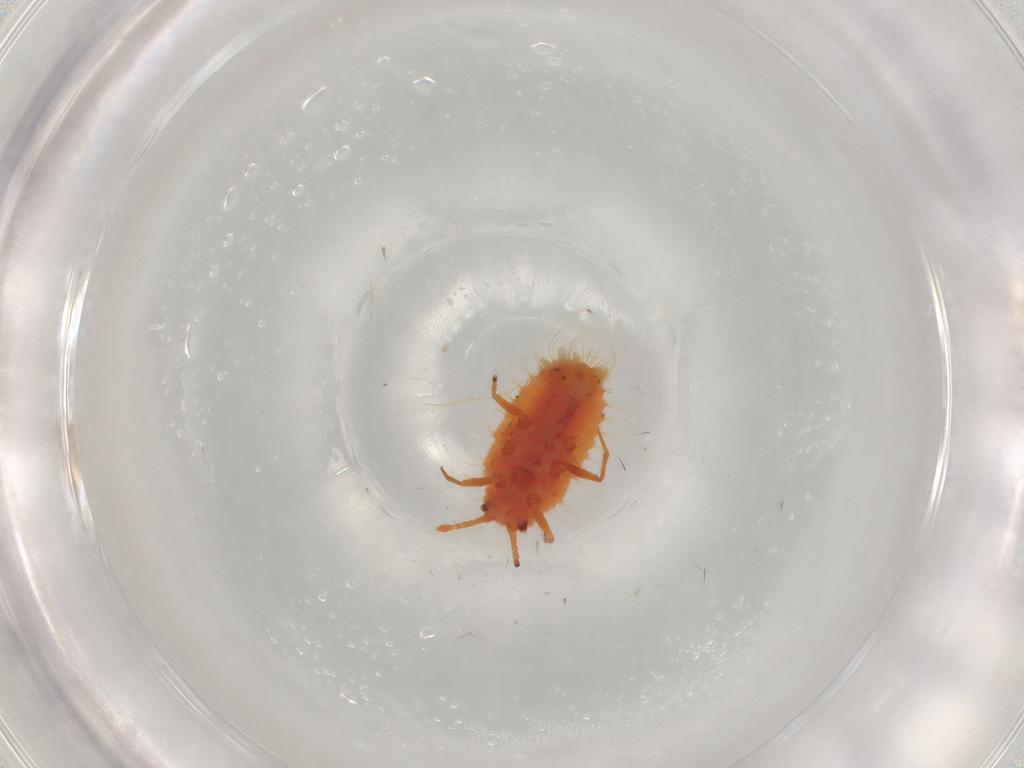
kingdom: Animalia
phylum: Arthropoda
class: Insecta
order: Hemiptera
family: Coccoidea_incertae_sedis
